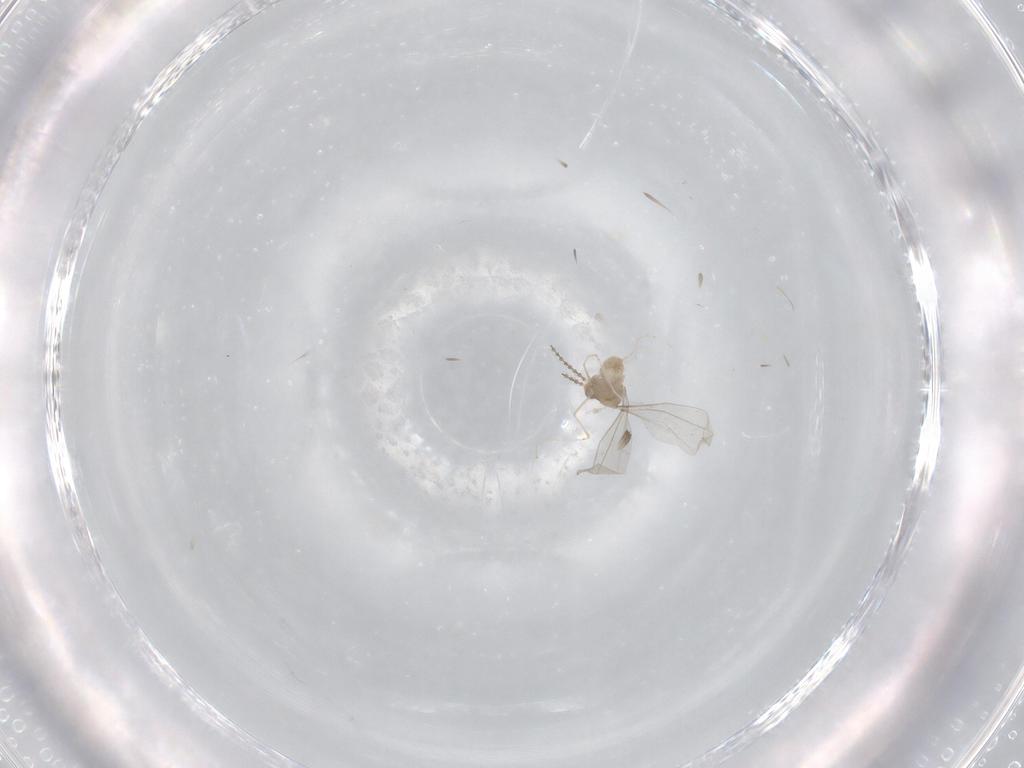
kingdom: Animalia
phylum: Arthropoda
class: Insecta
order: Diptera
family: Cecidomyiidae
